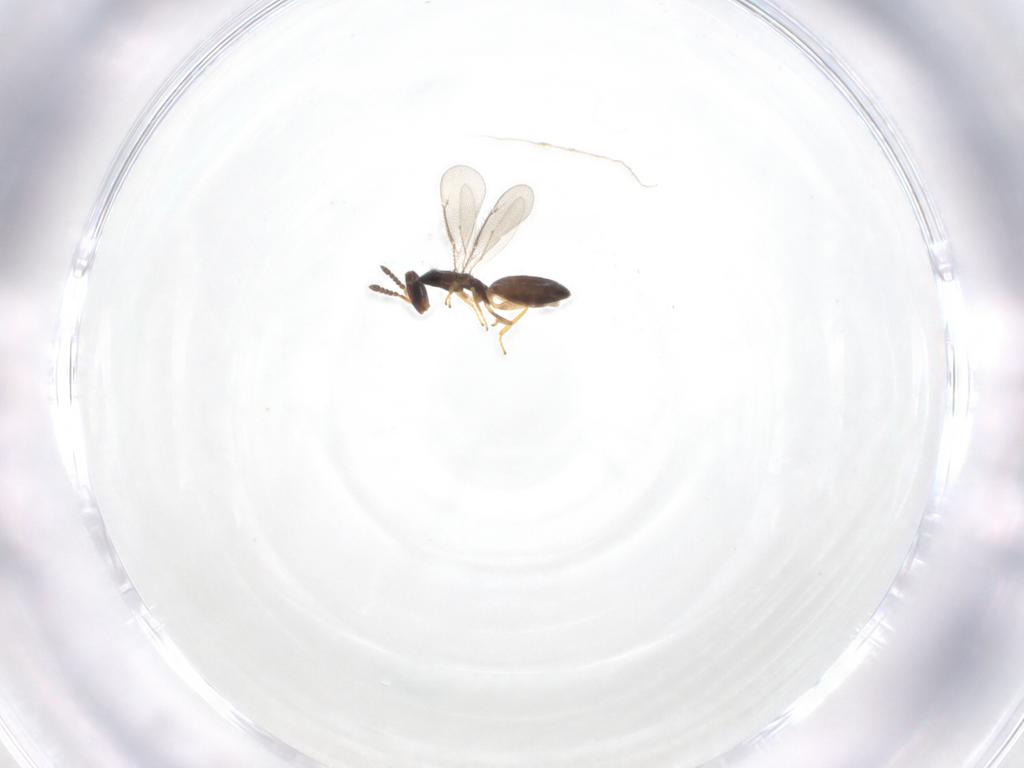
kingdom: Animalia
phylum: Arthropoda
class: Insecta
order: Hymenoptera
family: Eulophidae
